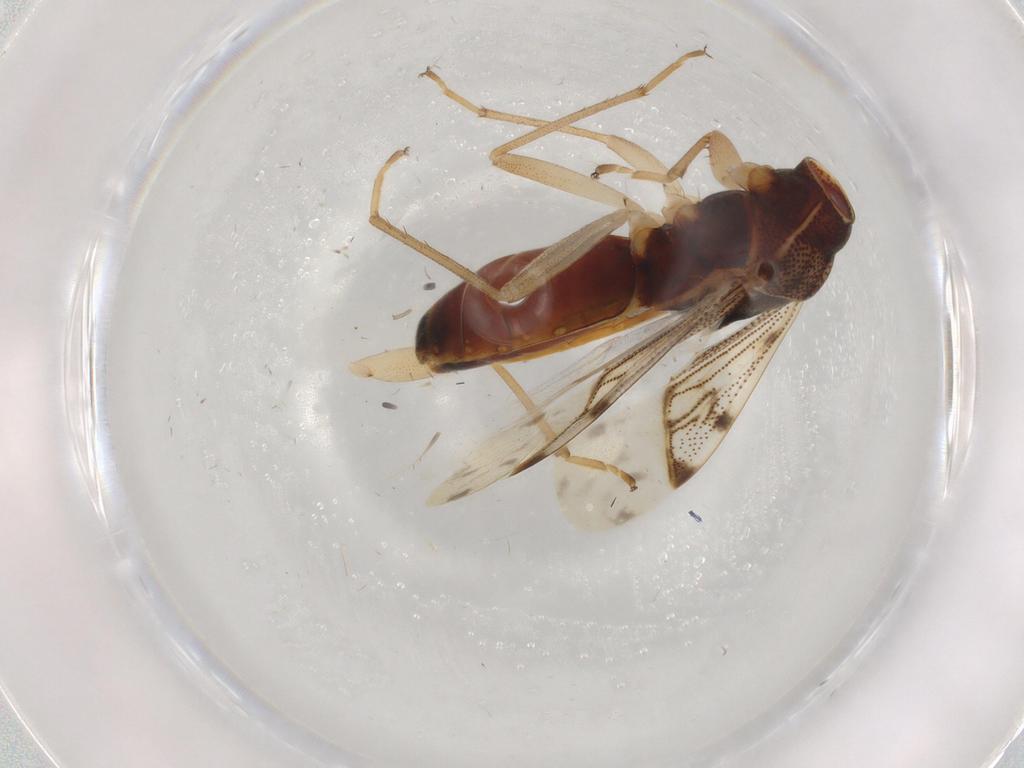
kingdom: Animalia
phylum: Arthropoda
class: Insecta
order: Hemiptera
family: Rhyparochromidae
